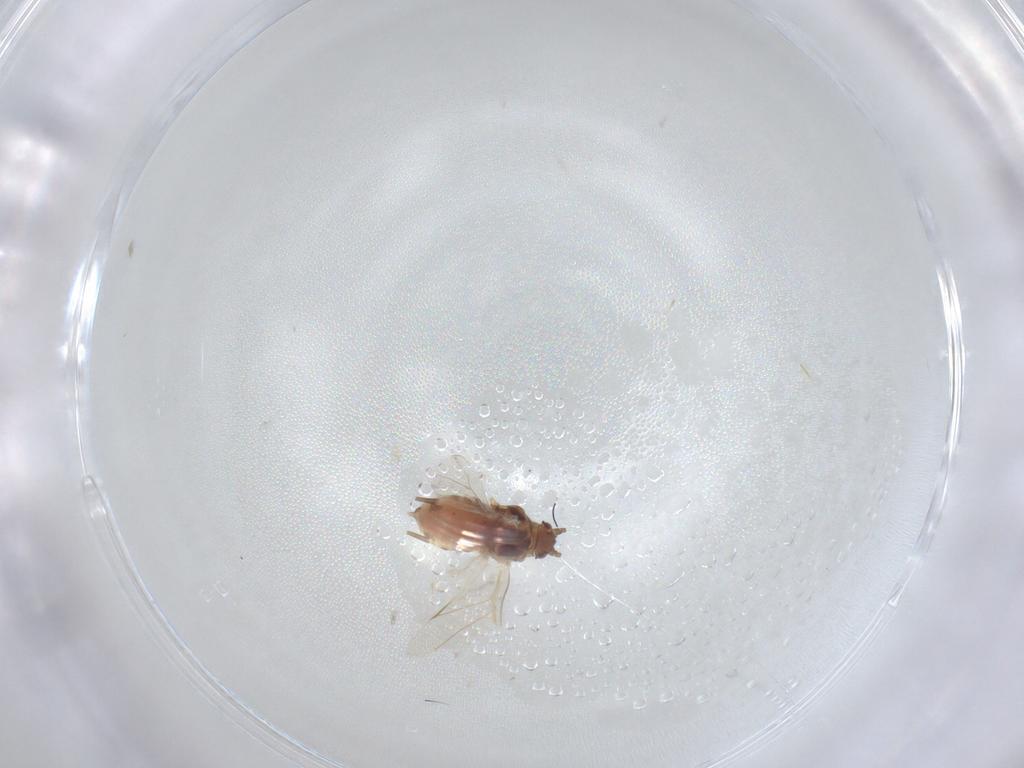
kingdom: Animalia
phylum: Arthropoda
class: Insecta
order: Hemiptera
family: Aphididae
